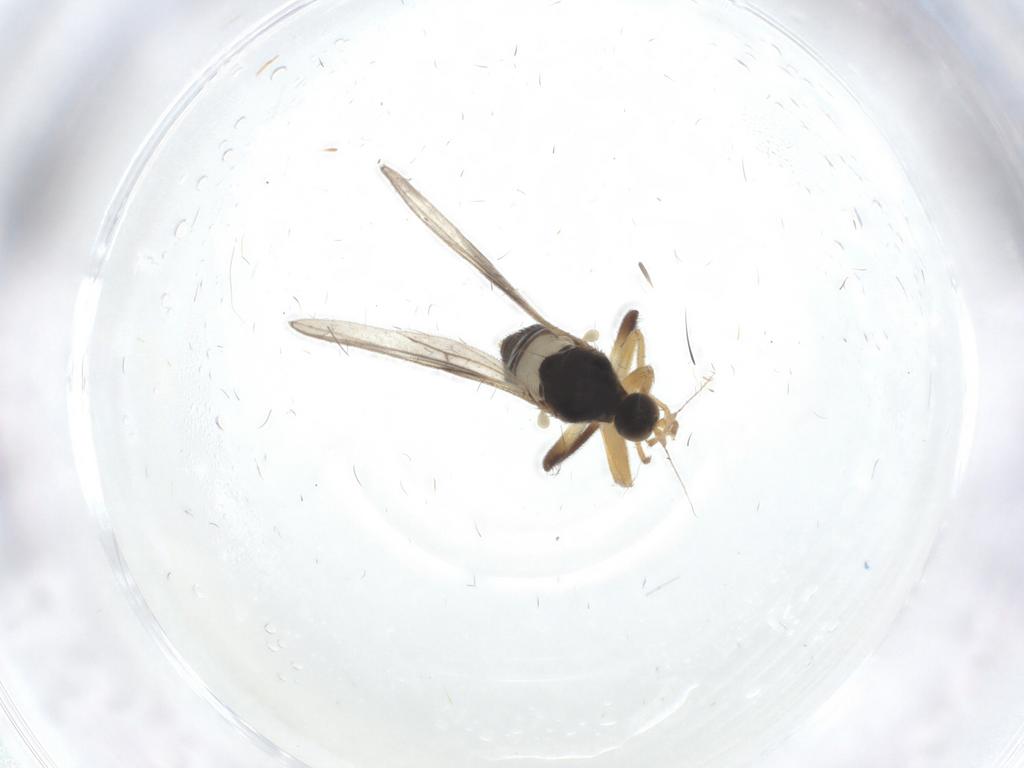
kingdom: Animalia
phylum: Arthropoda
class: Insecta
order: Diptera
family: Hybotidae
